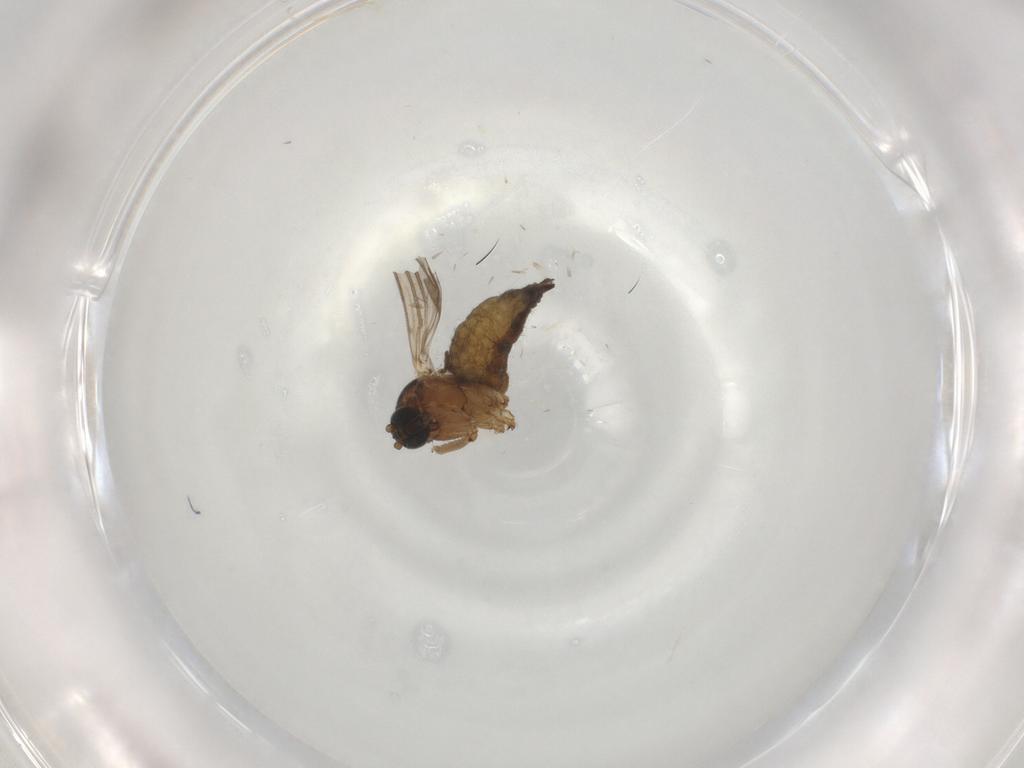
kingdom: Animalia
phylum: Arthropoda
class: Insecta
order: Diptera
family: Sciaridae
